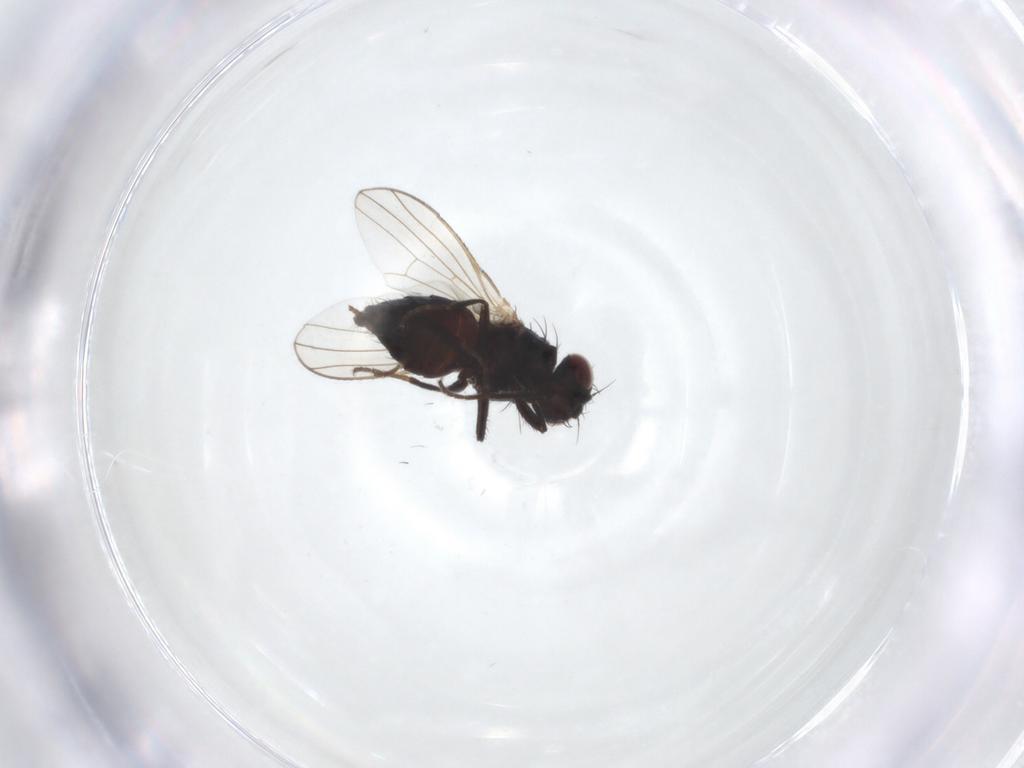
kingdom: Animalia
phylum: Arthropoda
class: Insecta
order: Diptera
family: Carnidae
